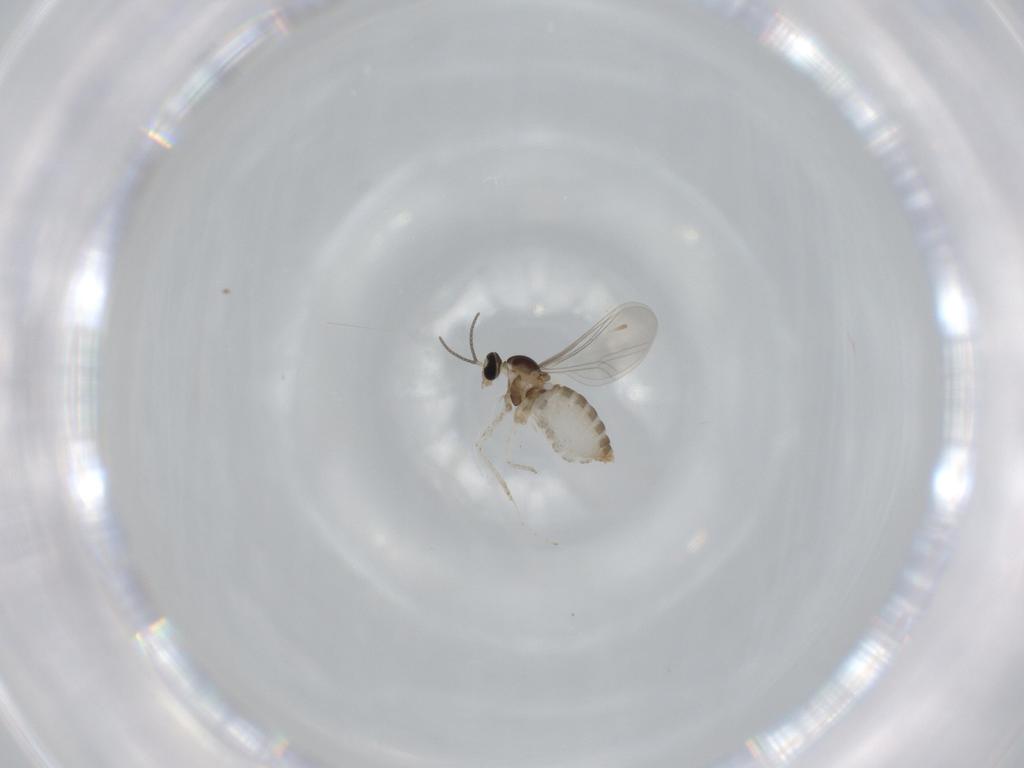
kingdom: Animalia
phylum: Arthropoda
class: Insecta
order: Diptera
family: Cecidomyiidae
